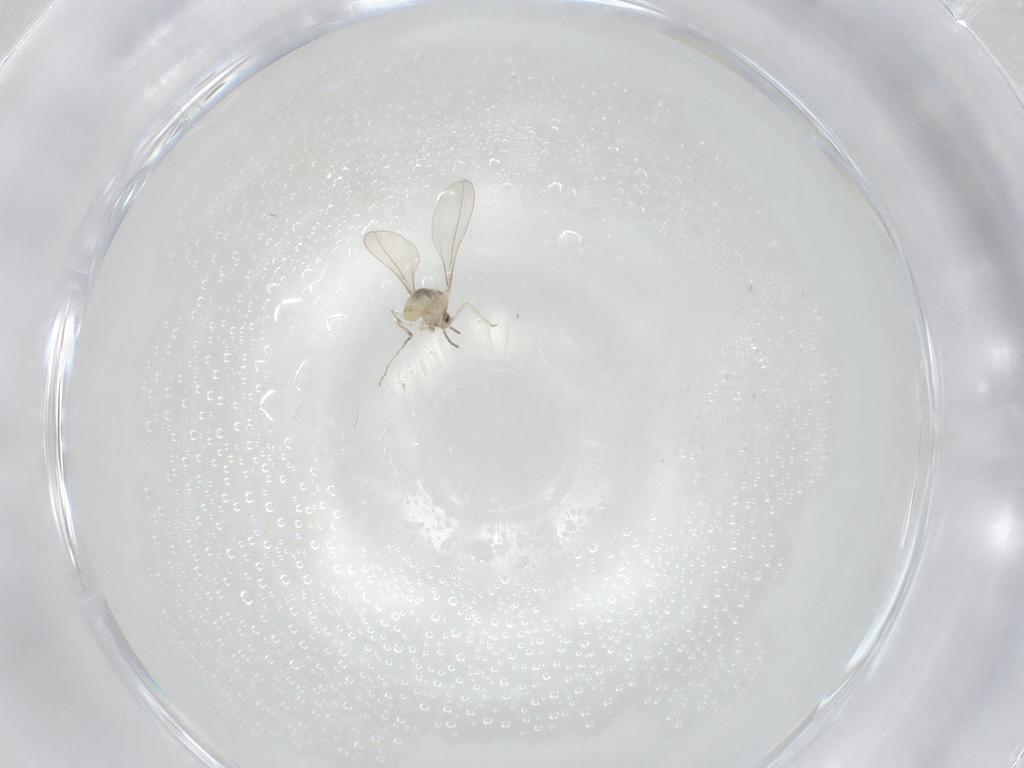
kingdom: Animalia
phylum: Arthropoda
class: Insecta
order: Diptera
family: Cecidomyiidae
